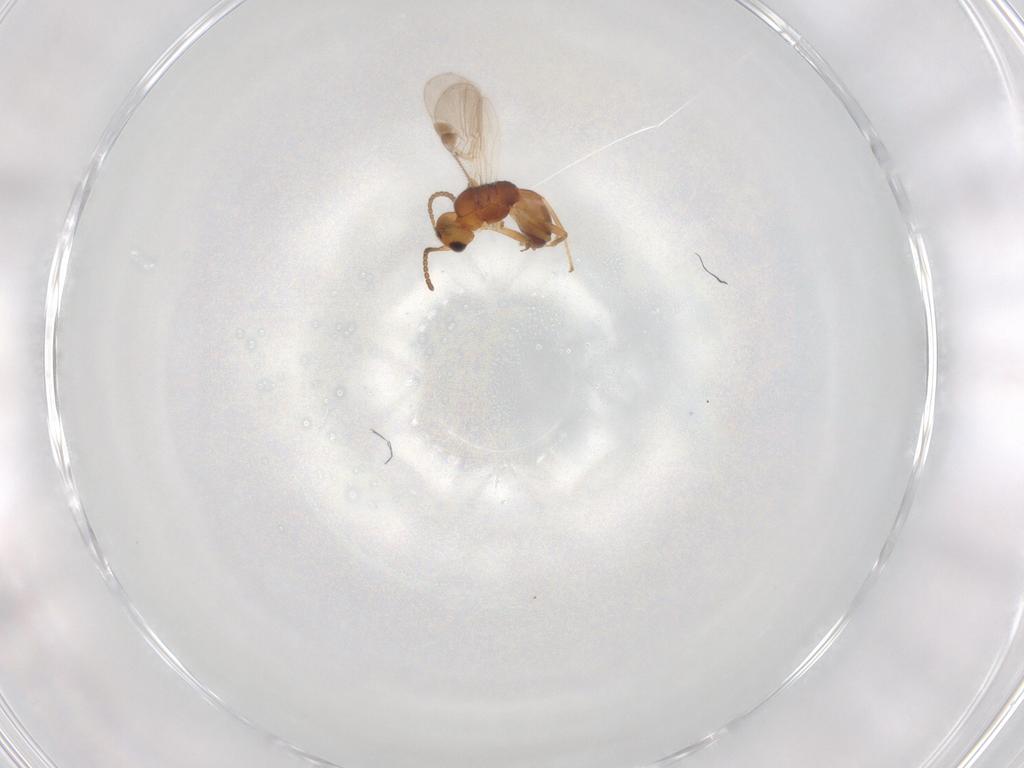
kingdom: Animalia
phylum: Arthropoda
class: Insecta
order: Hymenoptera
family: Braconidae
